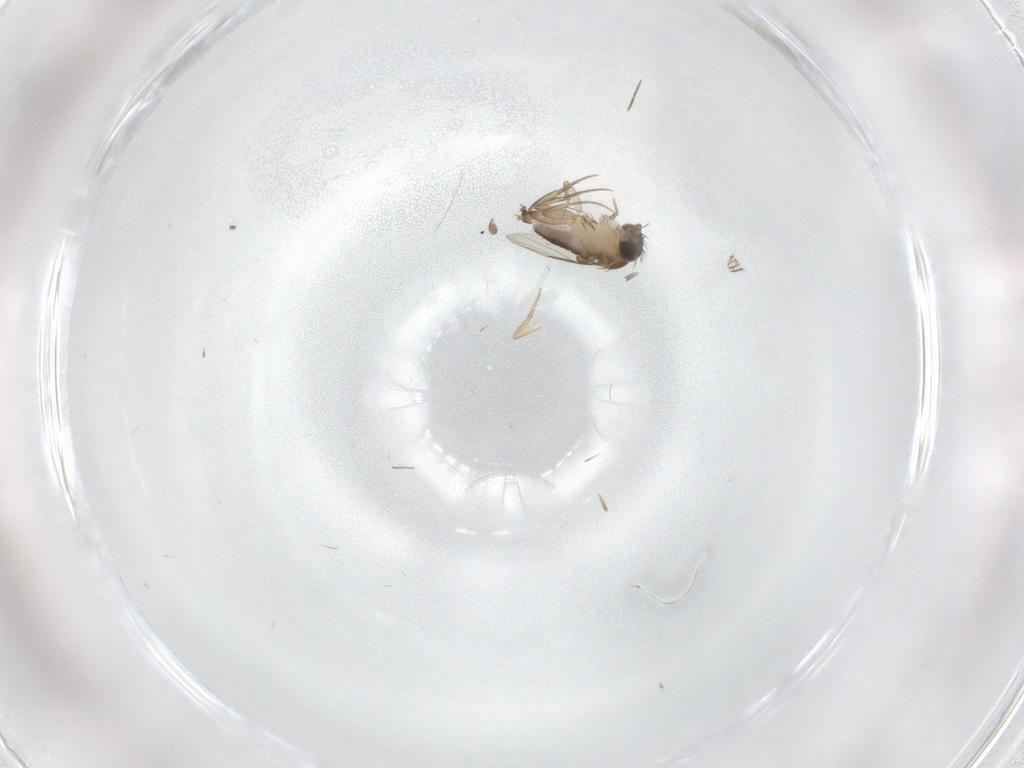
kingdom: Animalia
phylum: Arthropoda
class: Insecta
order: Diptera
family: Phoridae
